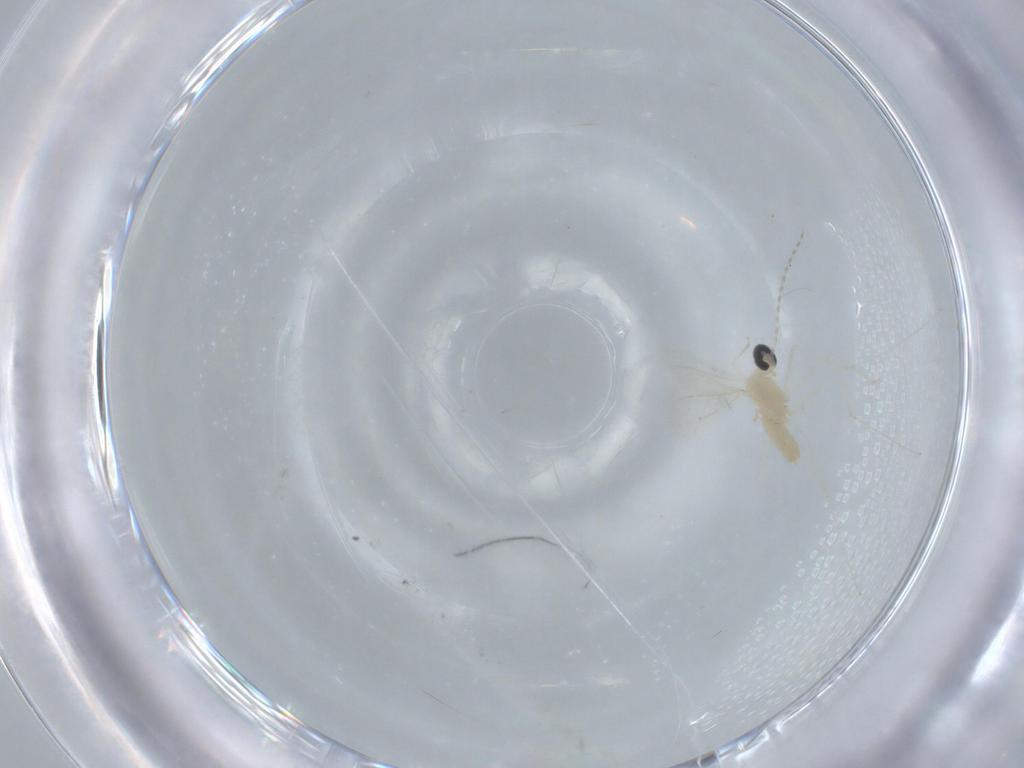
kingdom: Animalia
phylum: Arthropoda
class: Insecta
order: Diptera
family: Cecidomyiidae
